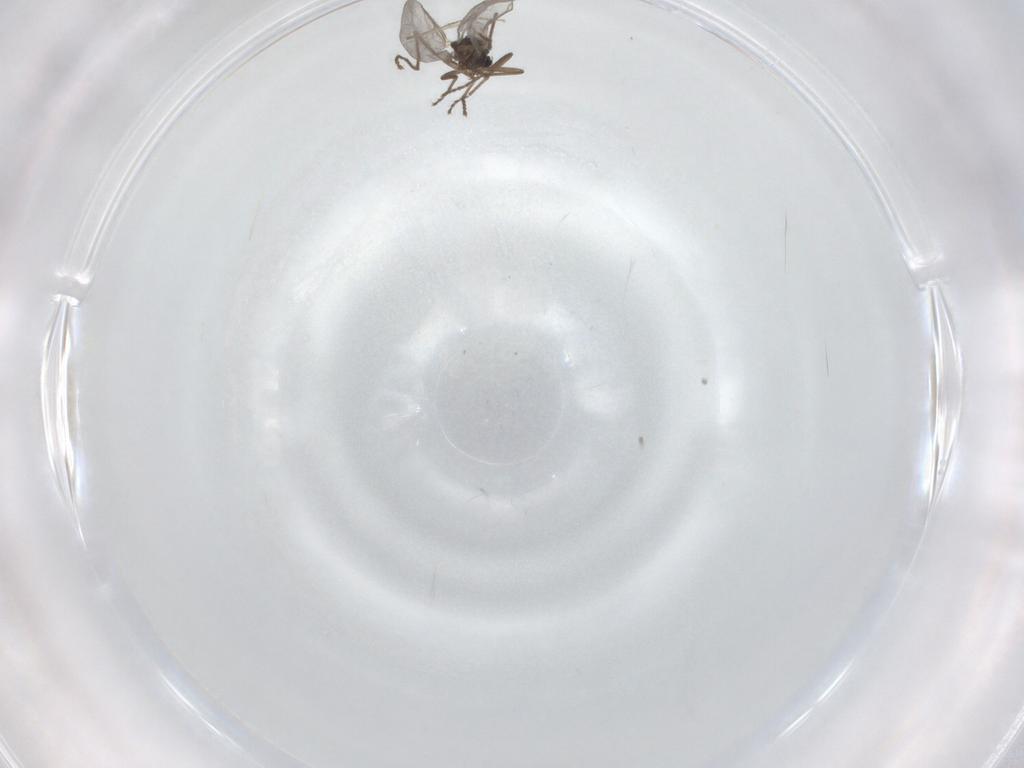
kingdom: Animalia
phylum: Arthropoda
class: Insecta
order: Diptera
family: Cecidomyiidae
